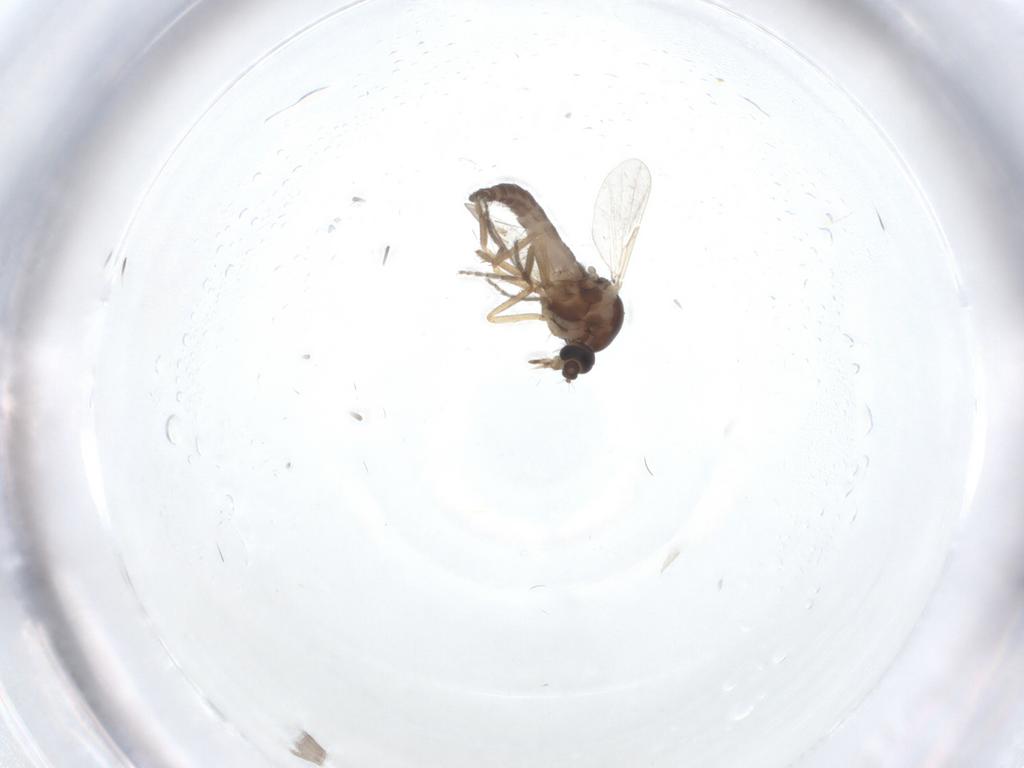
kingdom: Animalia
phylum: Arthropoda
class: Insecta
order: Diptera
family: Ceratopogonidae
